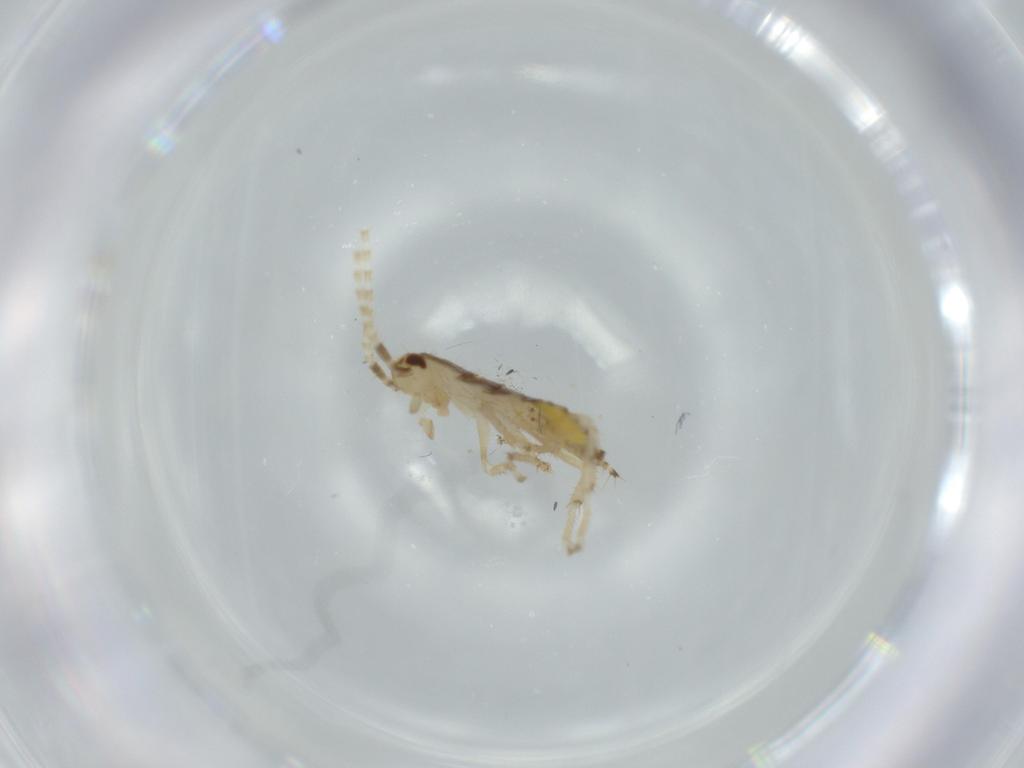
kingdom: Animalia
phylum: Arthropoda
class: Insecta
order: Blattodea
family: Ectobiidae
